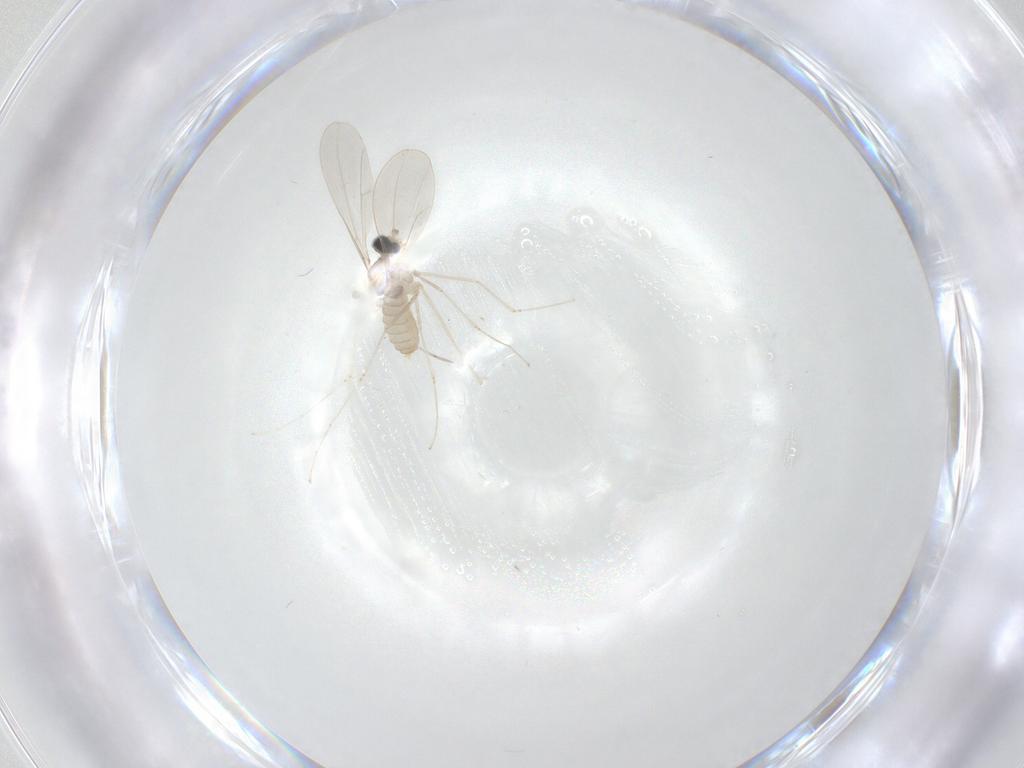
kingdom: Animalia
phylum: Arthropoda
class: Insecta
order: Diptera
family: Cecidomyiidae
